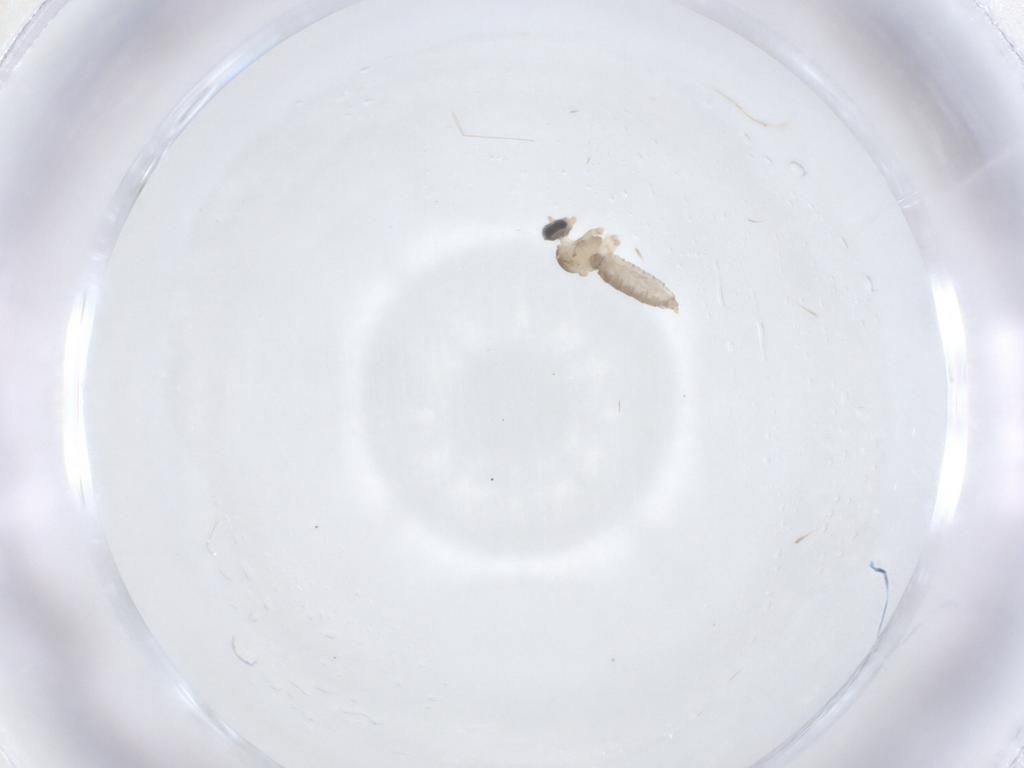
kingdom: Animalia
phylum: Arthropoda
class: Insecta
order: Diptera
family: Cecidomyiidae
